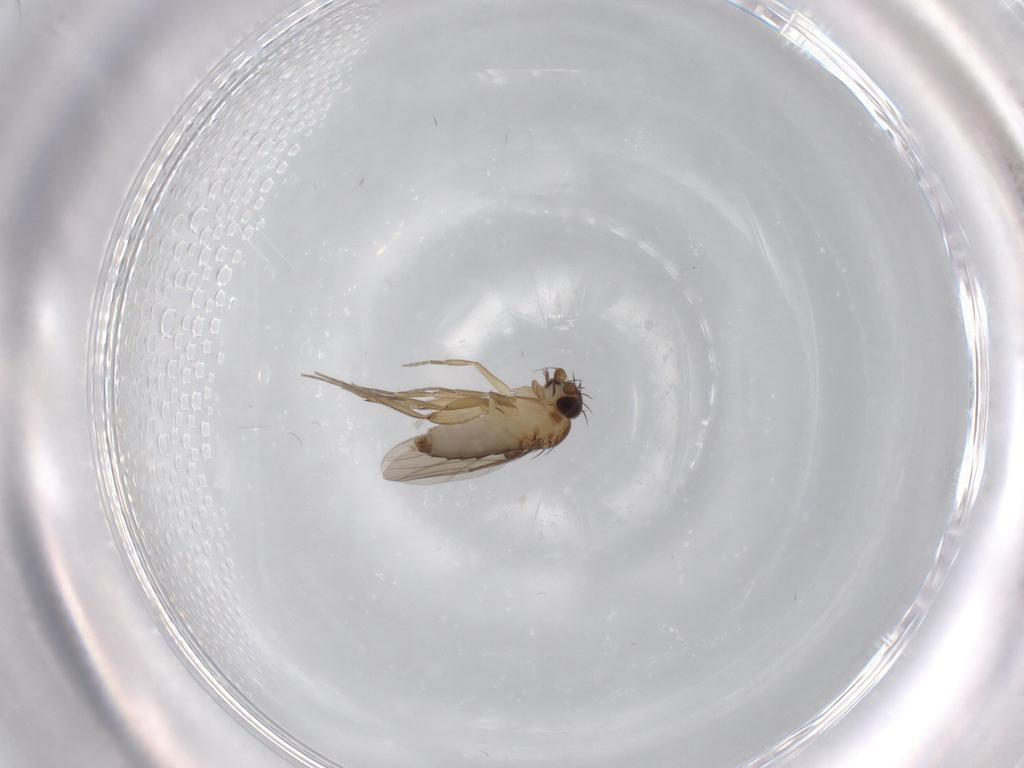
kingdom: Animalia
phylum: Arthropoda
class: Insecta
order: Diptera
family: Phoridae
